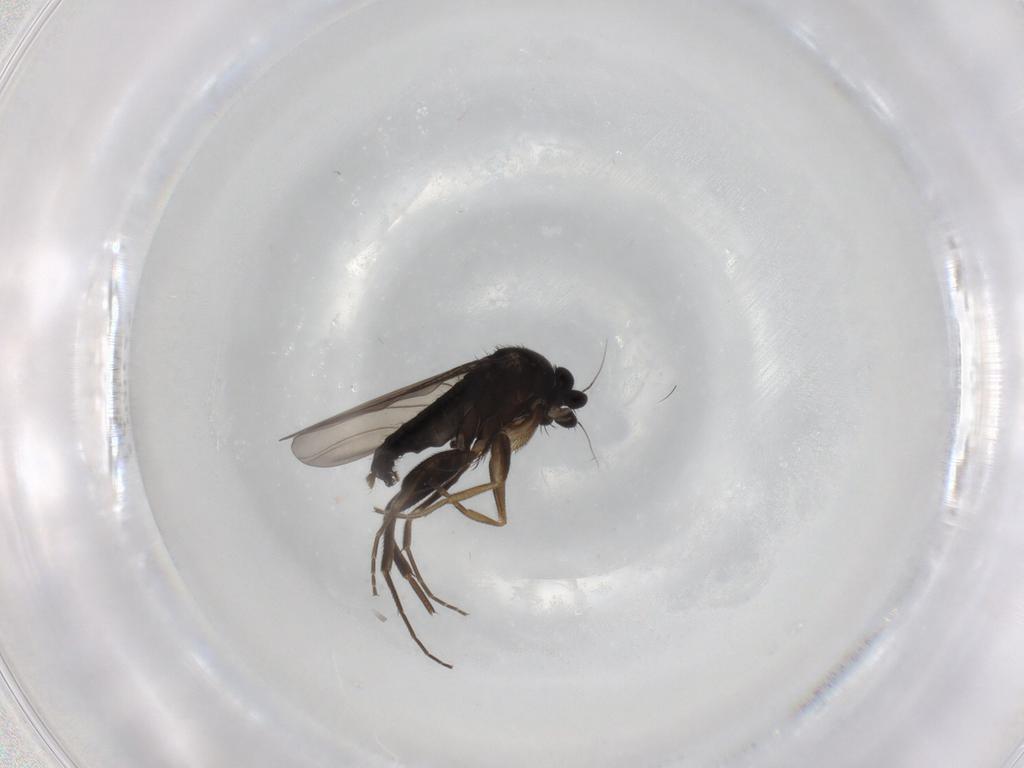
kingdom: Animalia
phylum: Arthropoda
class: Insecta
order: Diptera
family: Phoridae
